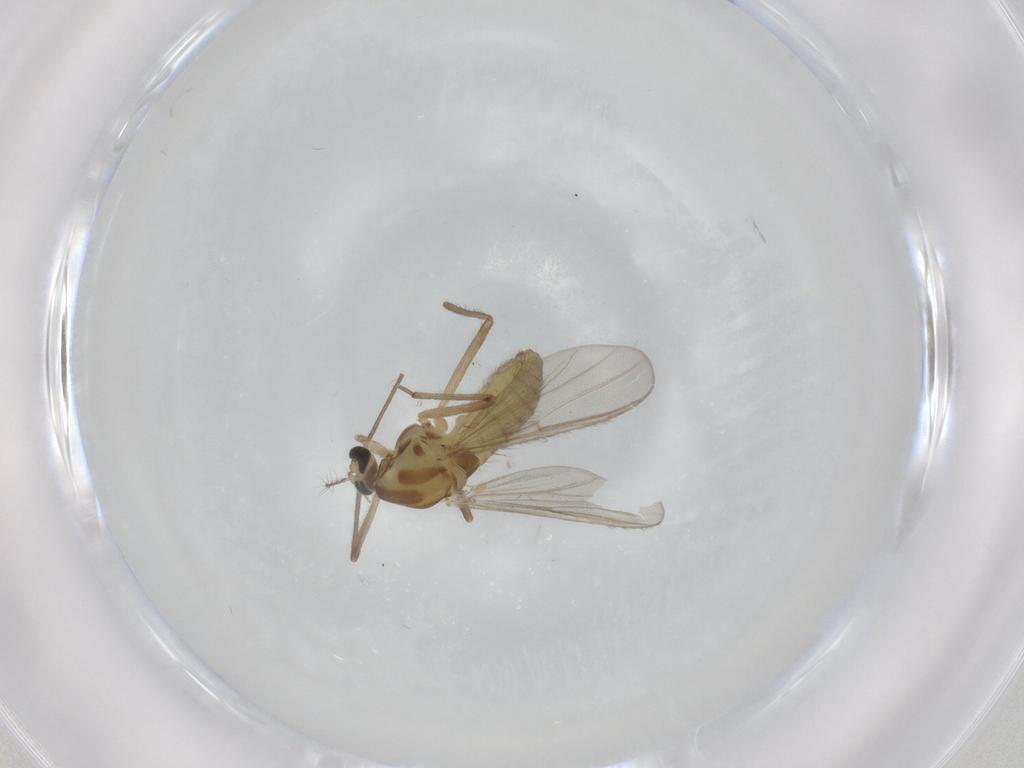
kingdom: Animalia
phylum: Arthropoda
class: Insecta
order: Diptera
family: Chironomidae
